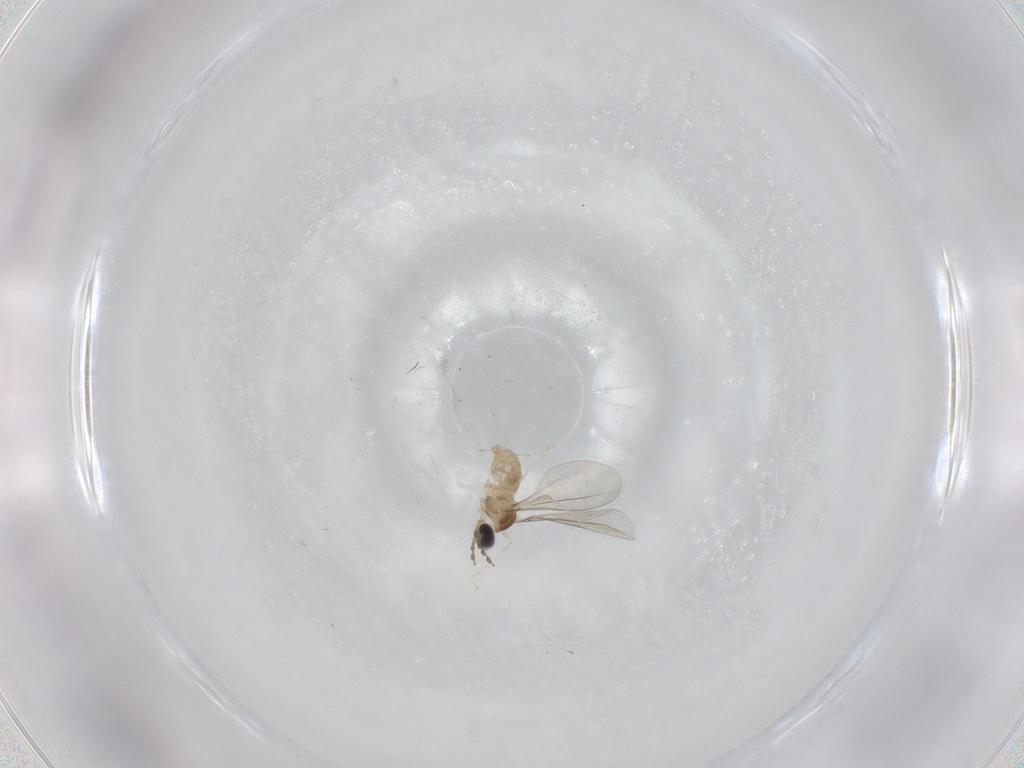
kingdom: Animalia
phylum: Arthropoda
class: Insecta
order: Diptera
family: Cecidomyiidae
